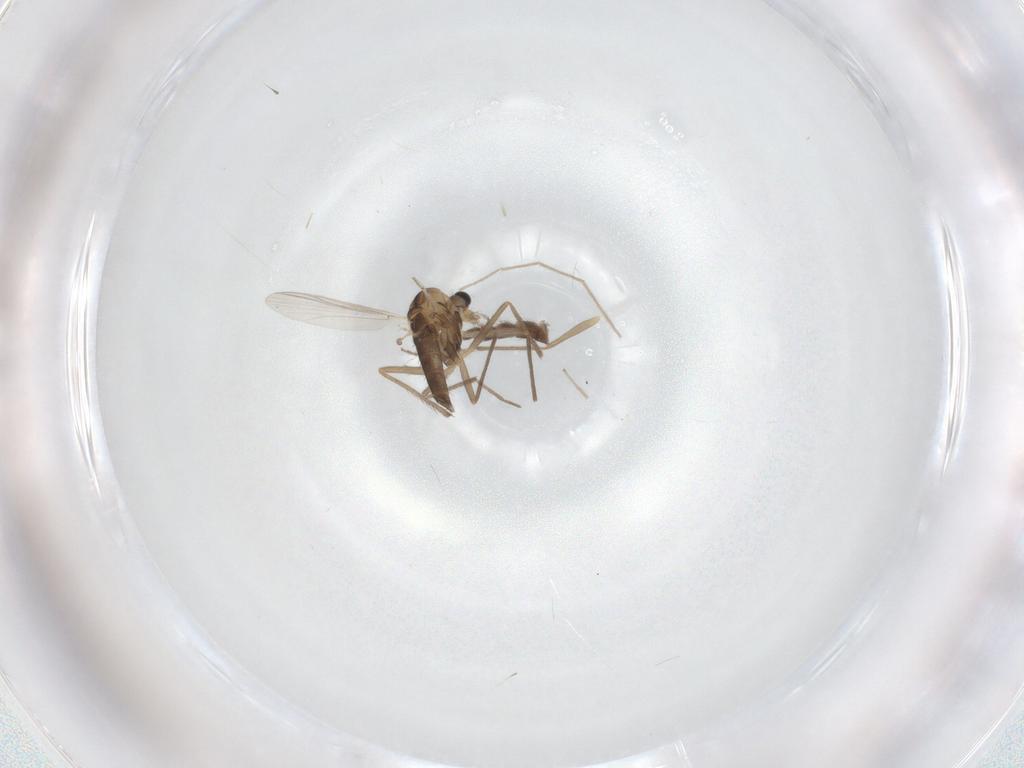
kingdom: Animalia
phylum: Arthropoda
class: Insecta
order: Diptera
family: Chironomidae
